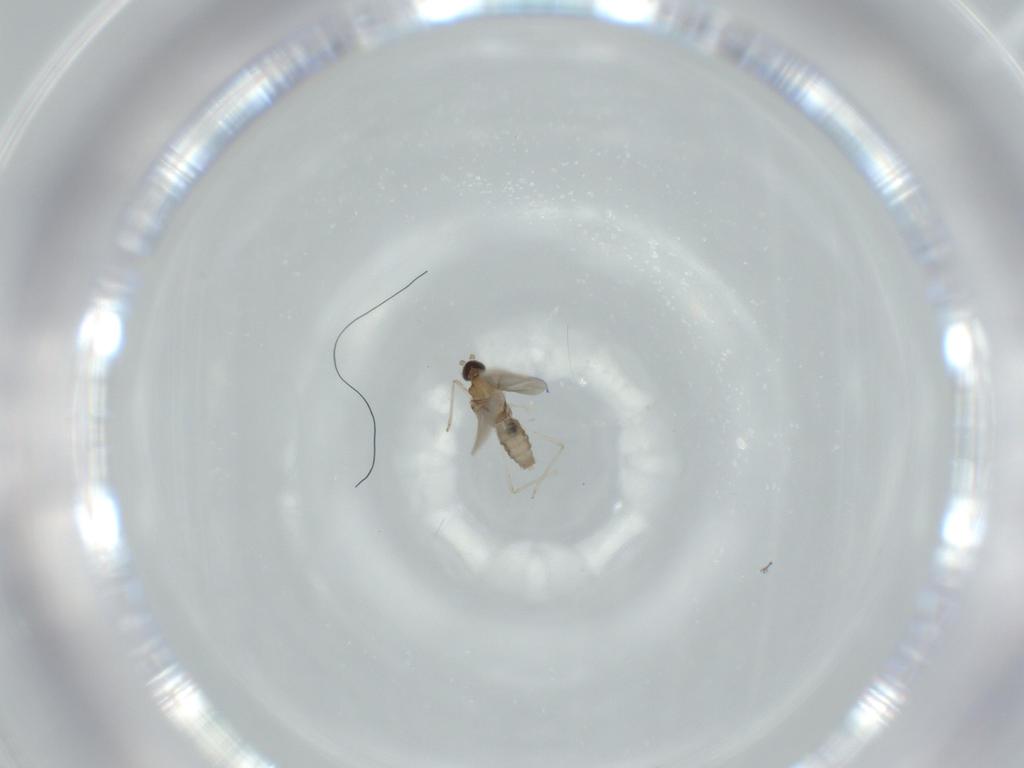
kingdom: Animalia
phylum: Arthropoda
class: Insecta
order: Diptera
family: Cecidomyiidae
